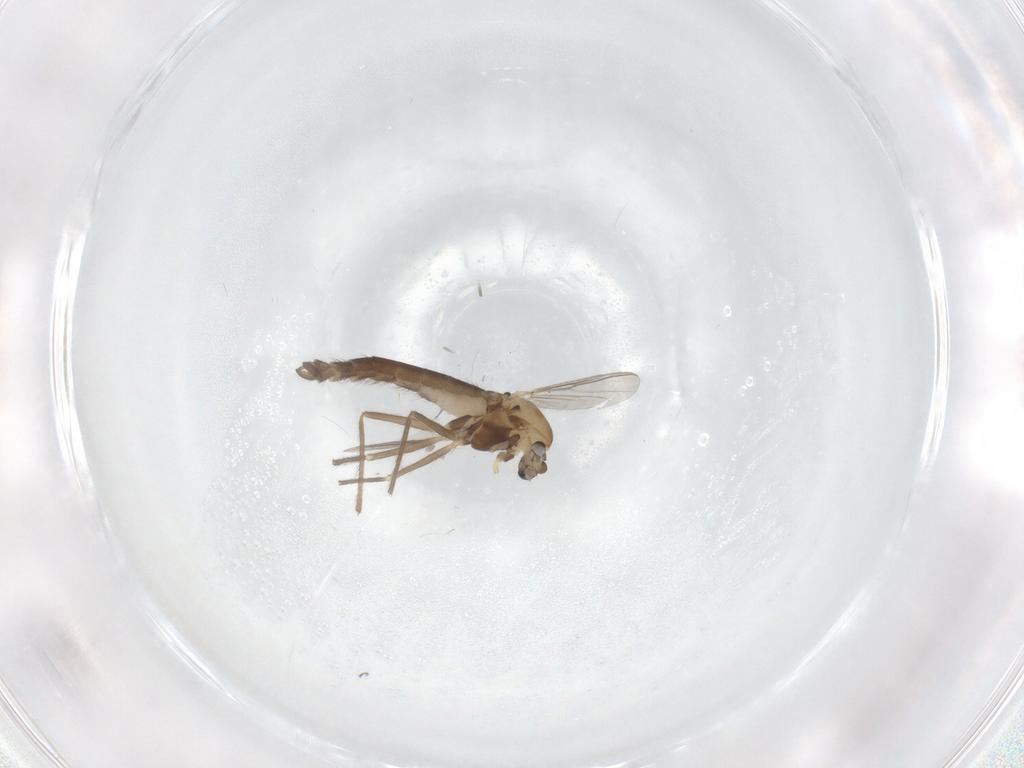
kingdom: Animalia
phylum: Arthropoda
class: Insecta
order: Diptera
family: Chironomidae
